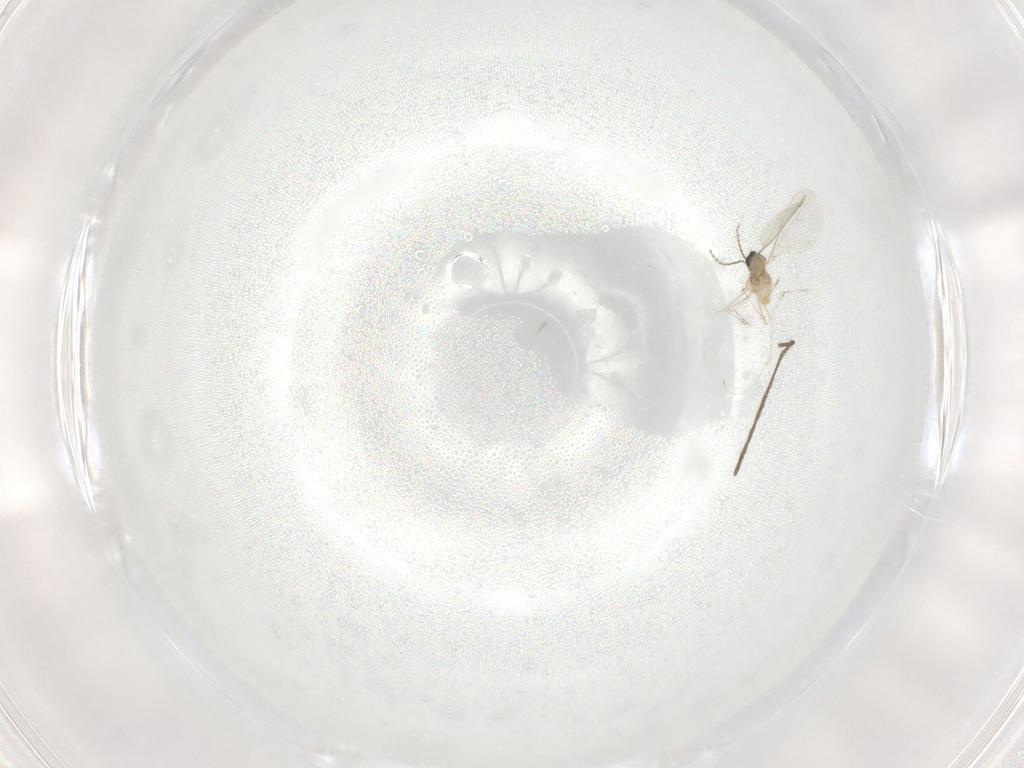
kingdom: Animalia
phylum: Arthropoda
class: Insecta
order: Diptera
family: Cecidomyiidae
